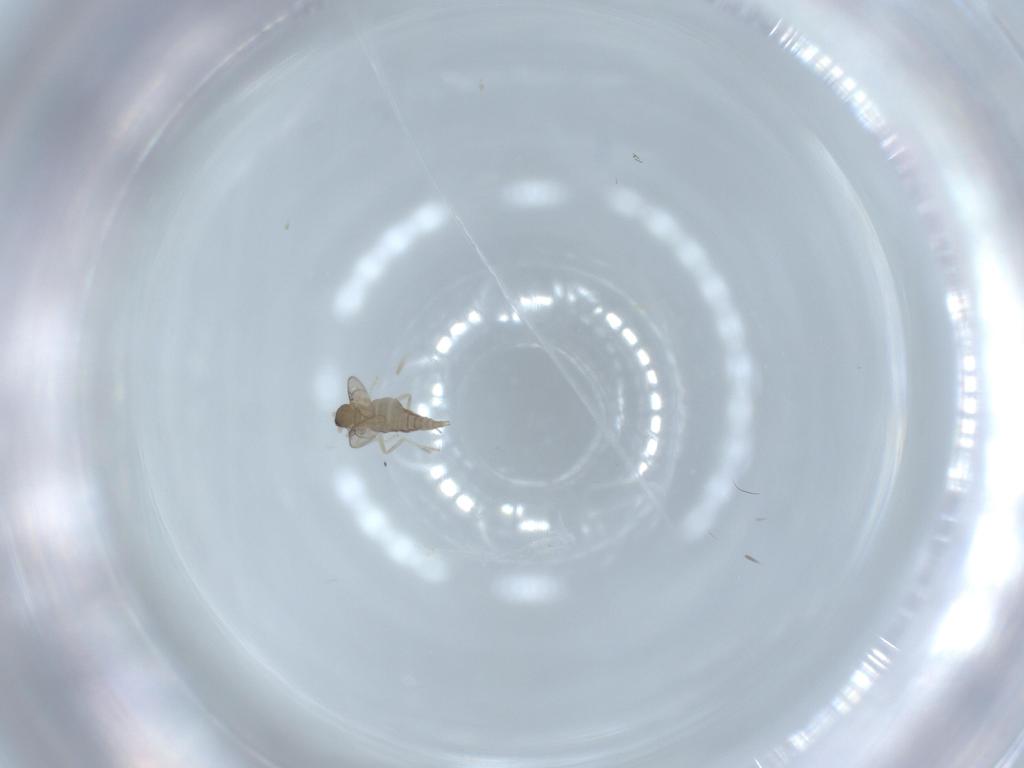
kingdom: Animalia
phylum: Arthropoda
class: Insecta
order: Diptera
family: Cecidomyiidae
